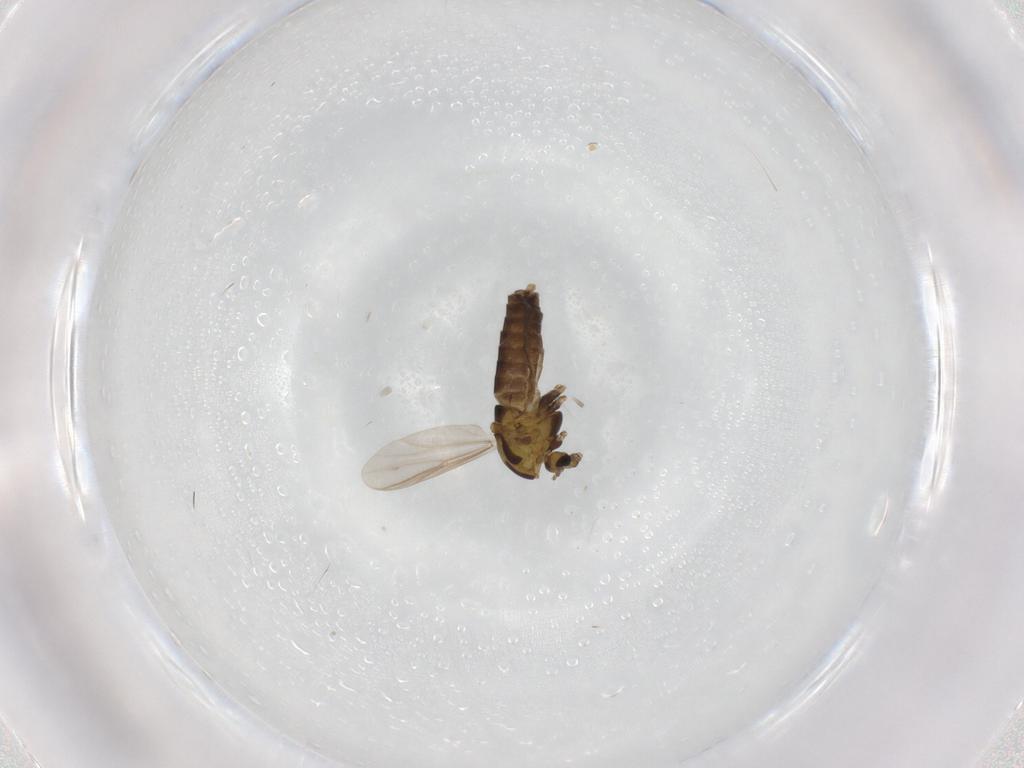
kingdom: Animalia
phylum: Arthropoda
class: Insecta
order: Diptera
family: Chironomidae
